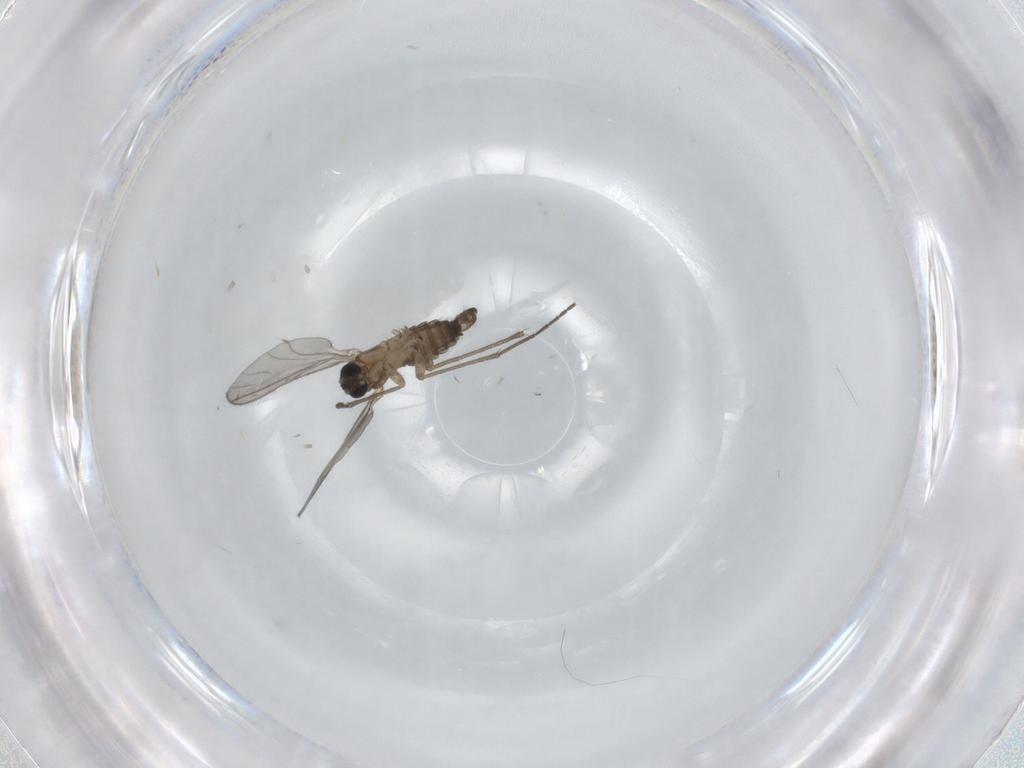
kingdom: Animalia
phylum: Arthropoda
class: Insecta
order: Diptera
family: Sciaridae
